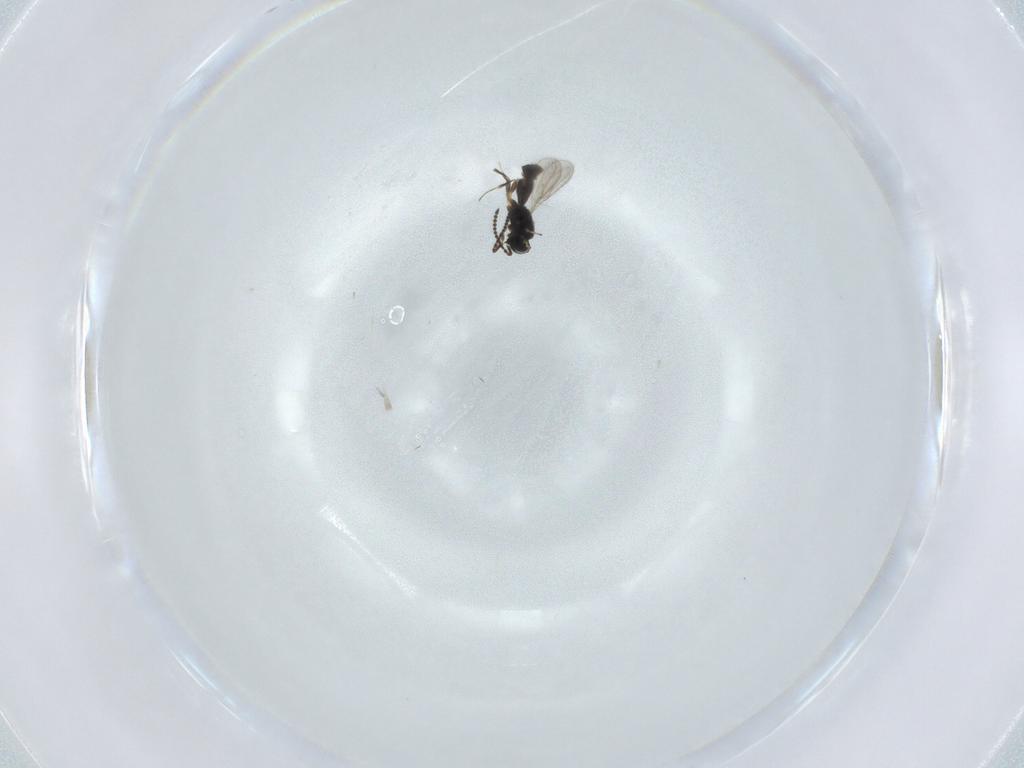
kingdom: Animalia
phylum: Arthropoda
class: Insecta
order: Hymenoptera
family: Scelionidae
